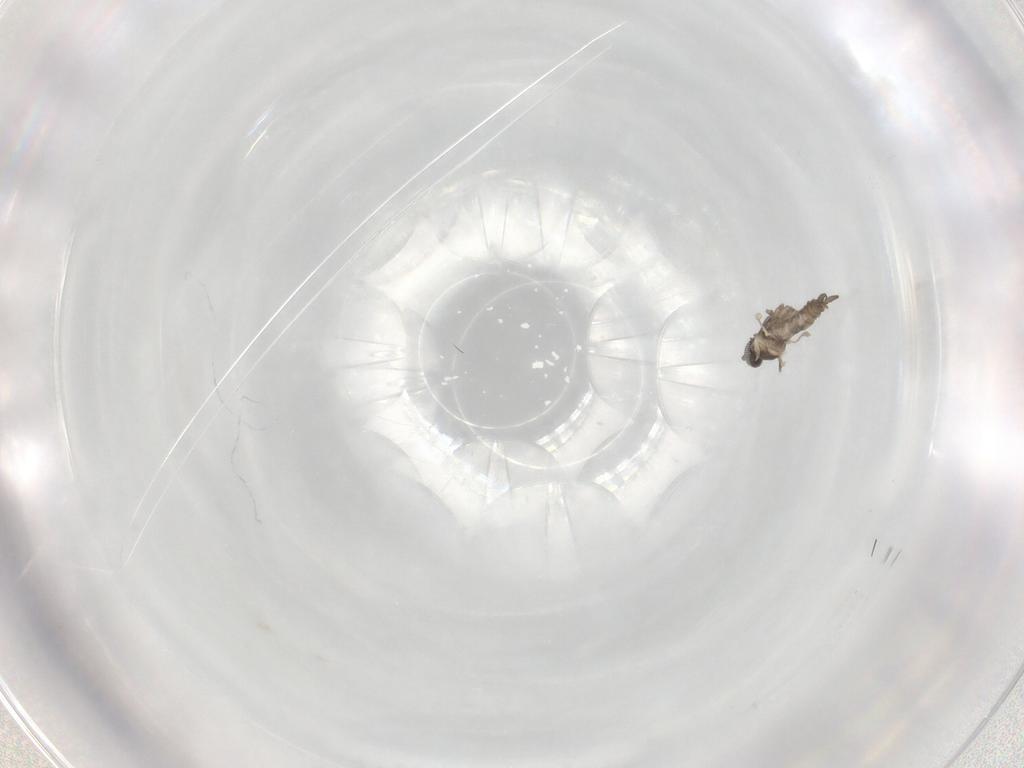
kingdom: Animalia
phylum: Arthropoda
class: Insecta
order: Diptera
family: Cecidomyiidae
